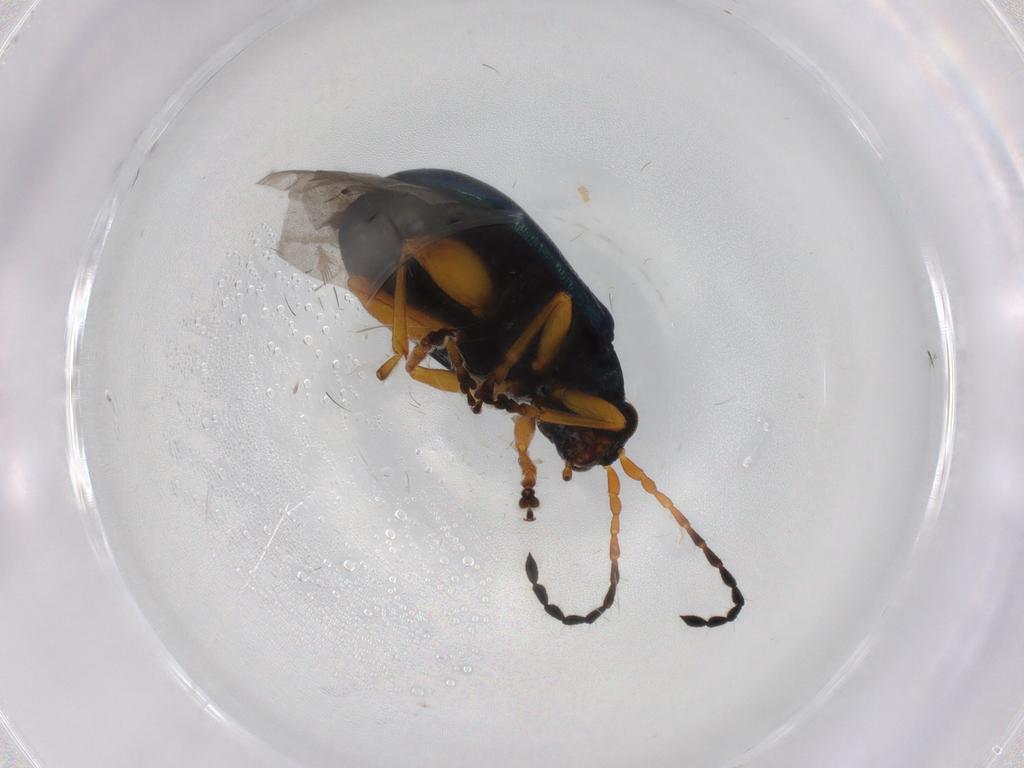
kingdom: Animalia
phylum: Arthropoda
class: Insecta
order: Coleoptera
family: Chrysomelidae
